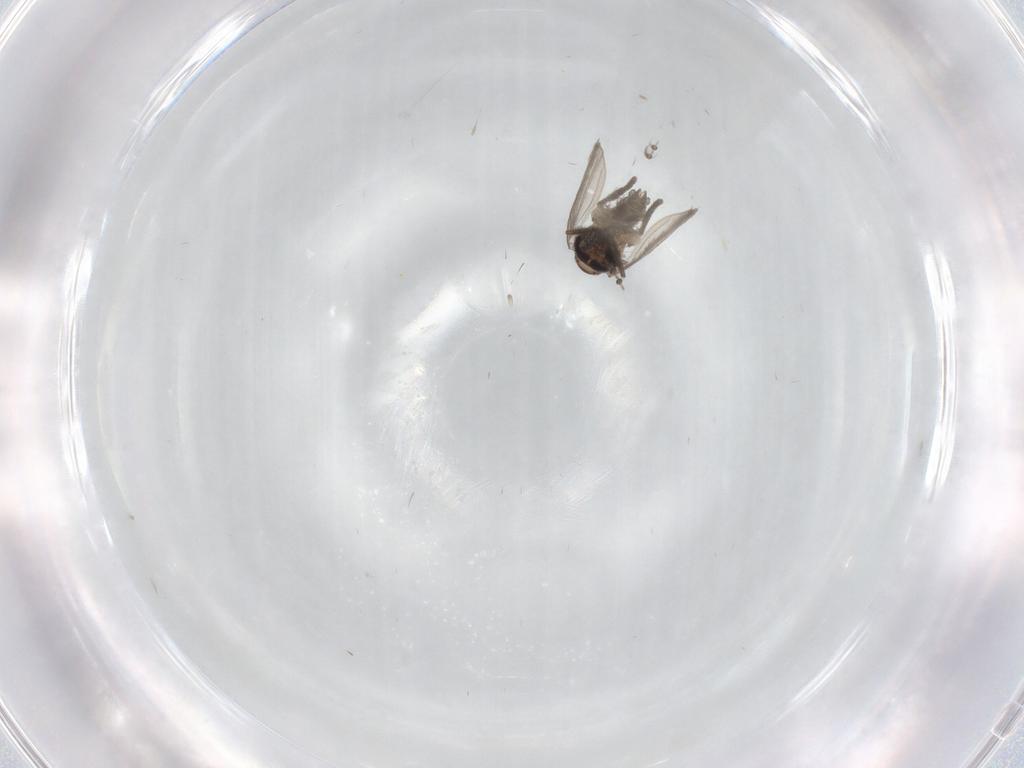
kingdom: Animalia
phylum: Arthropoda
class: Insecta
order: Diptera
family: Psychodidae
